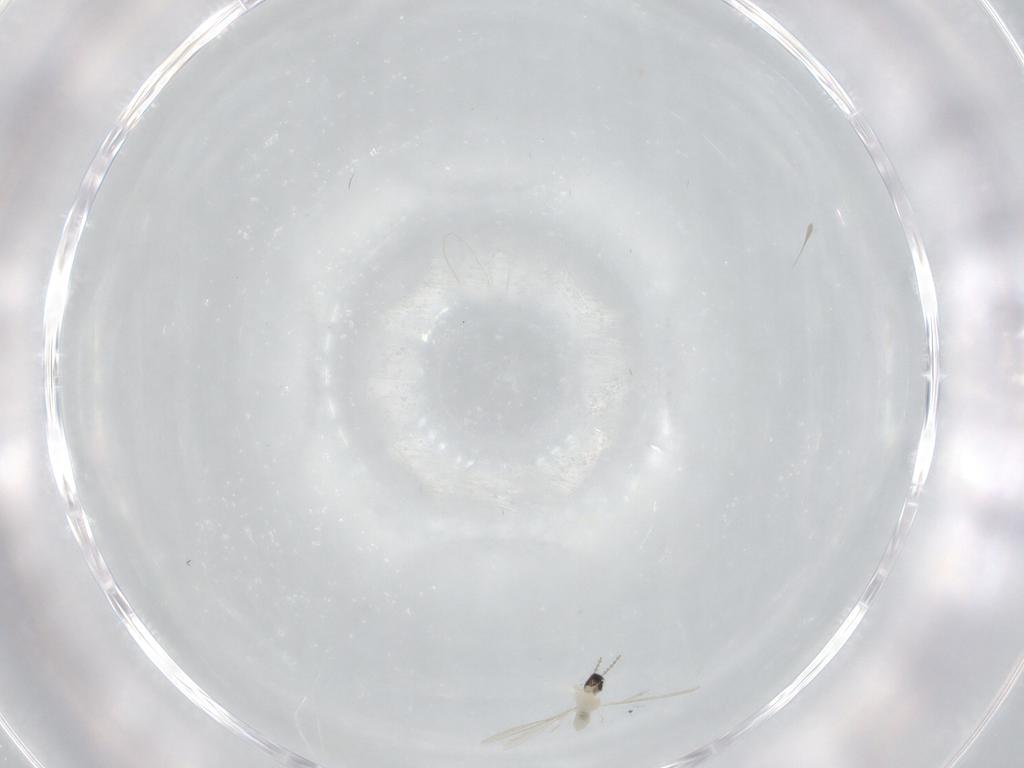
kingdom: Animalia
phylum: Arthropoda
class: Insecta
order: Diptera
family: Cecidomyiidae
